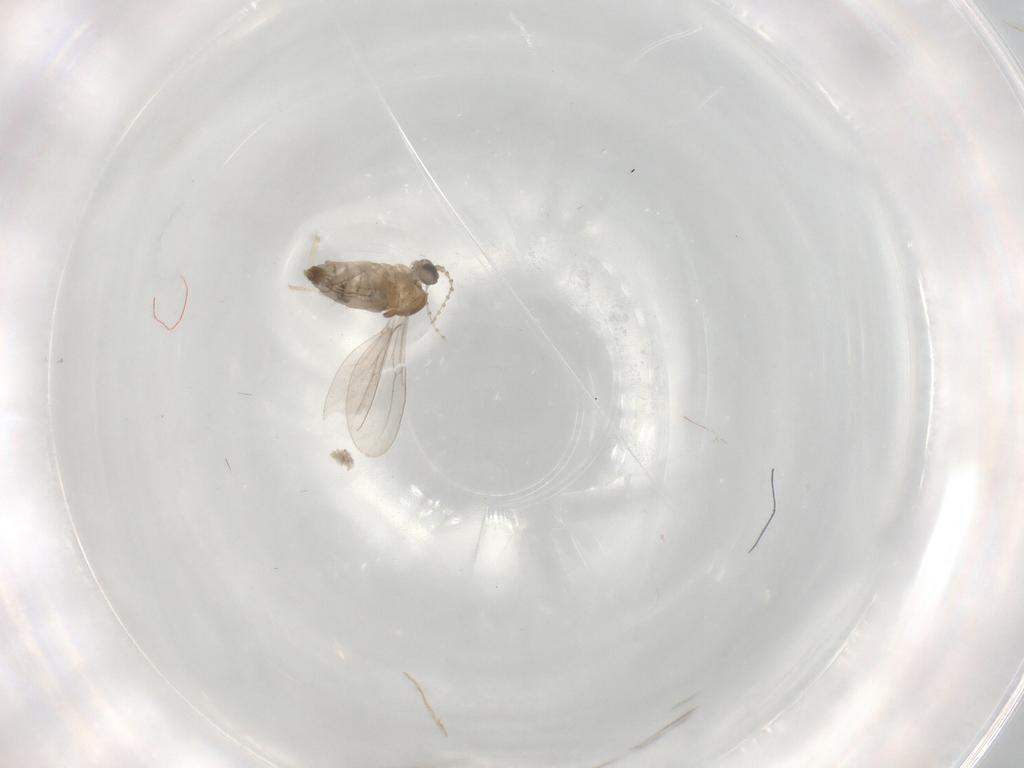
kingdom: Animalia
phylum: Arthropoda
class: Insecta
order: Diptera
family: Cecidomyiidae
